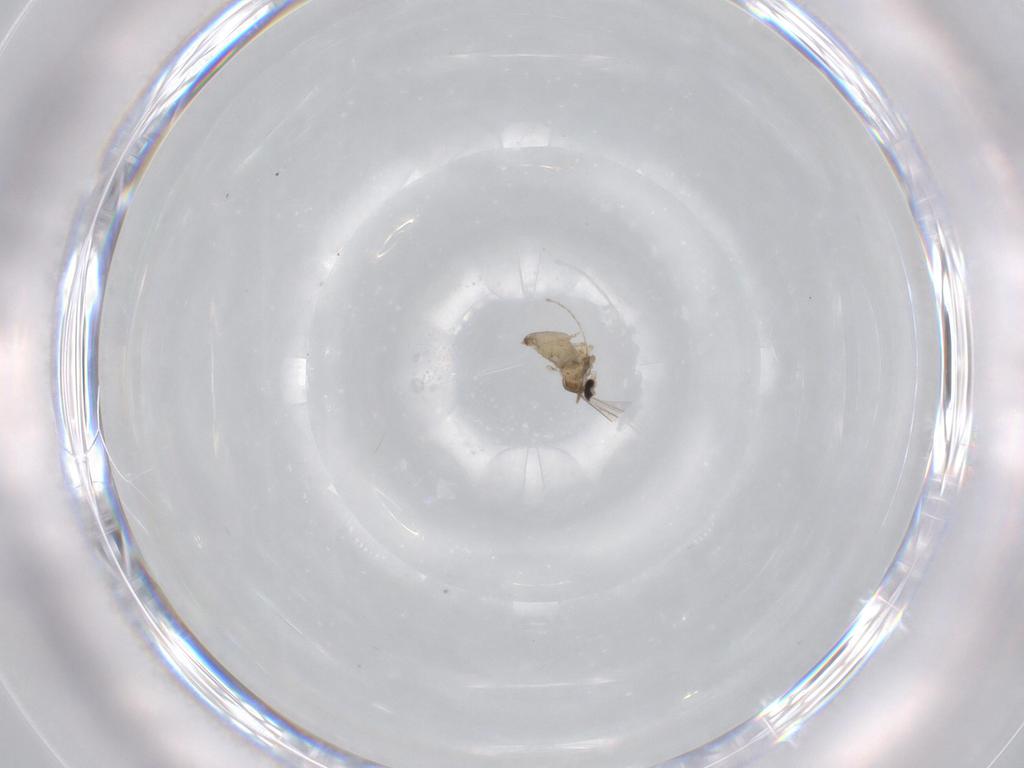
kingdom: Animalia
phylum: Arthropoda
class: Insecta
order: Diptera
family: Cecidomyiidae
